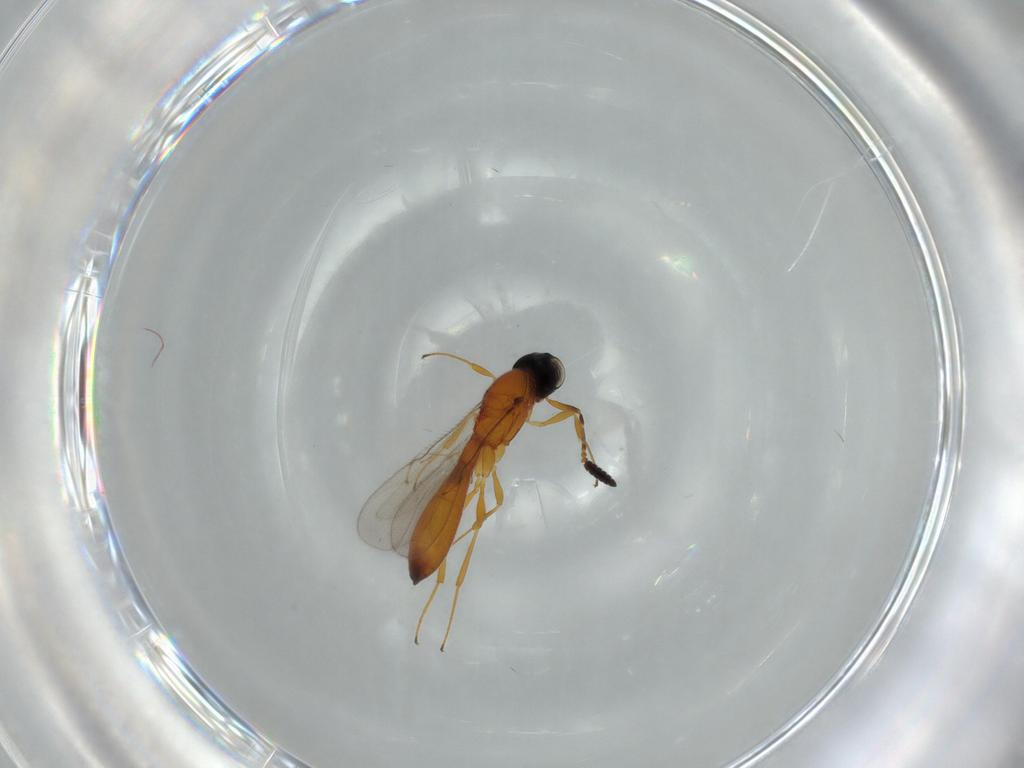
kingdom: Animalia
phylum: Arthropoda
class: Insecta
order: Hymenoptera
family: Scelionidae
